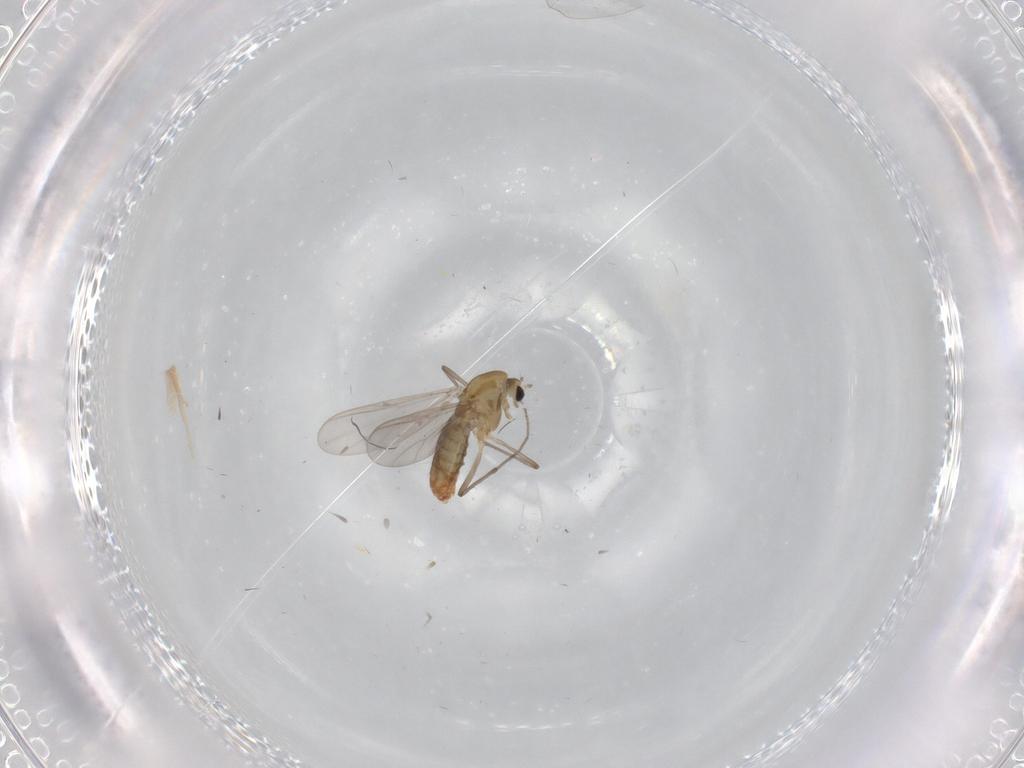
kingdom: Animalia
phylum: Arthropoda
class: Insecta
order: Diptera
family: Chironomidae
